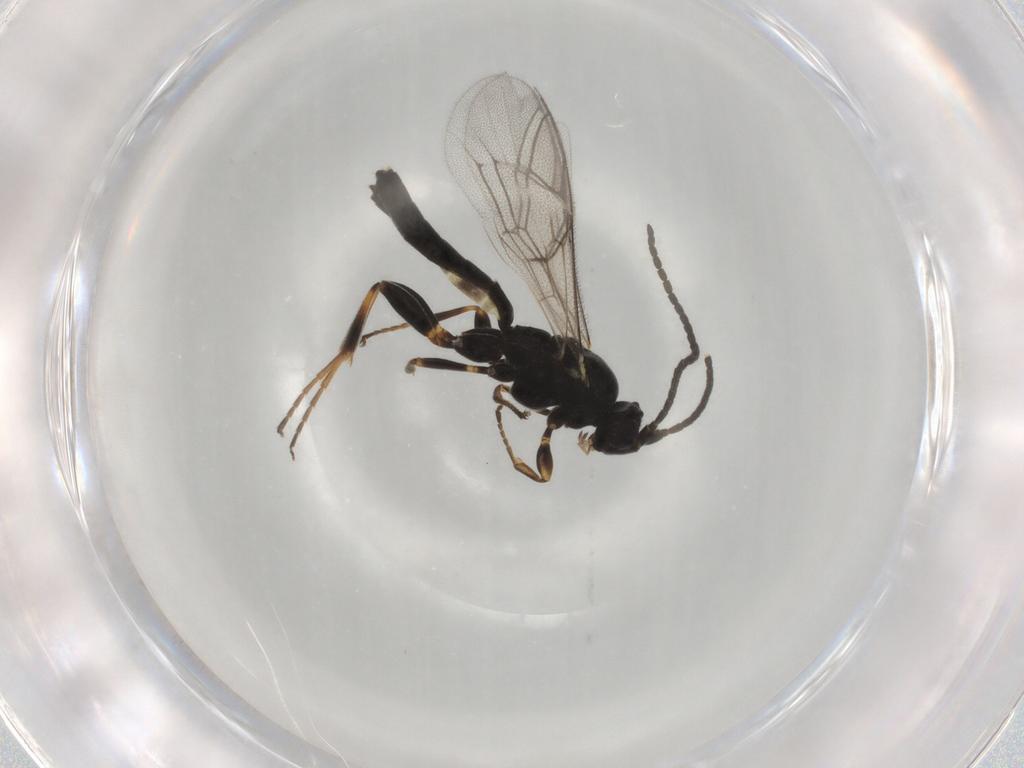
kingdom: Animalia
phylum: Arthropoda
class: Insecta
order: Hymenoptera
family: Ichneumonidae
